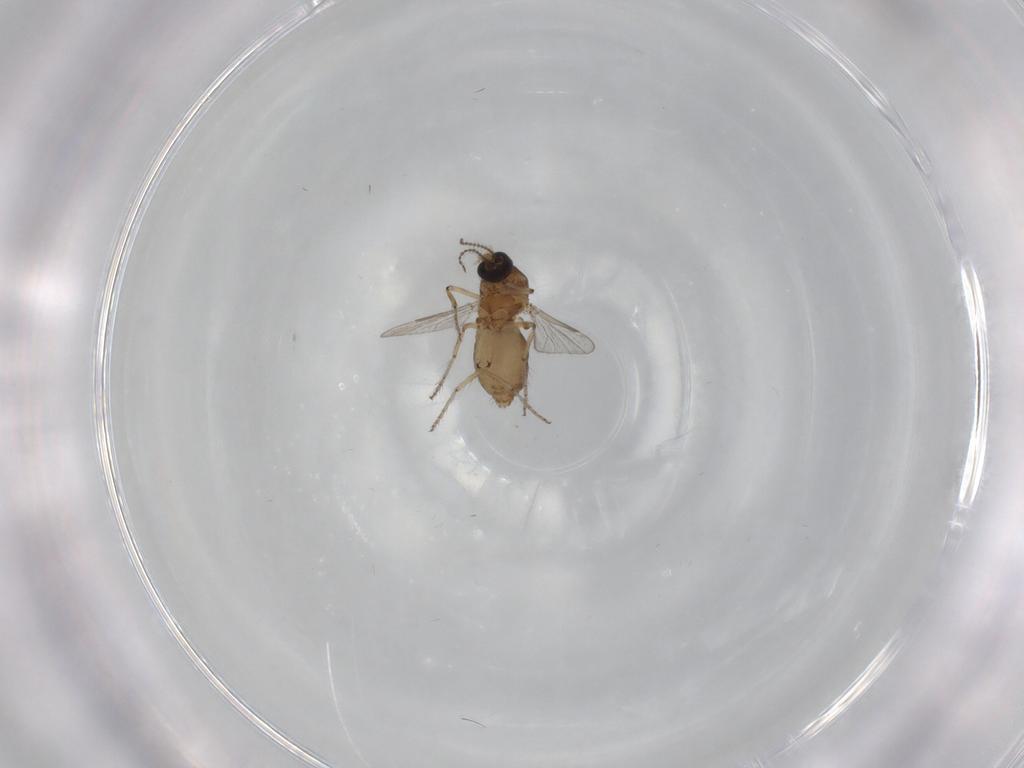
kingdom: Animalia
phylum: Arthropoda
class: Insecta
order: Diptera
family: Ceratopogonidae
